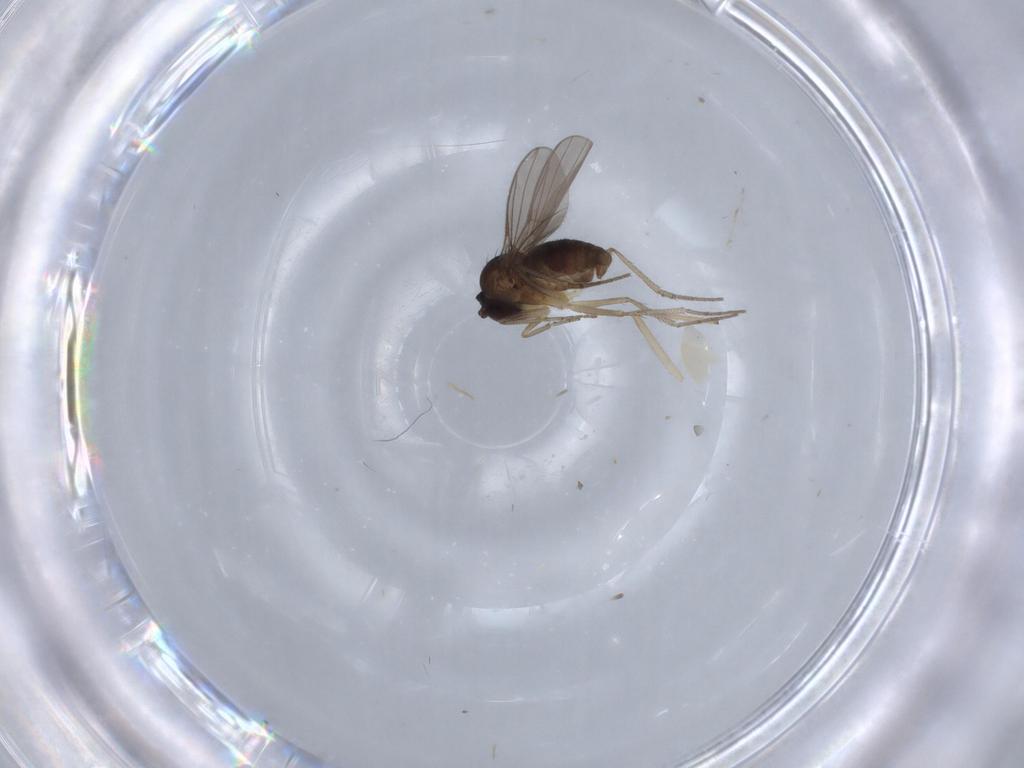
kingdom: Animalia
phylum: Arthropoda
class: Insecta
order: Diptera
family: Dolichopodidae
